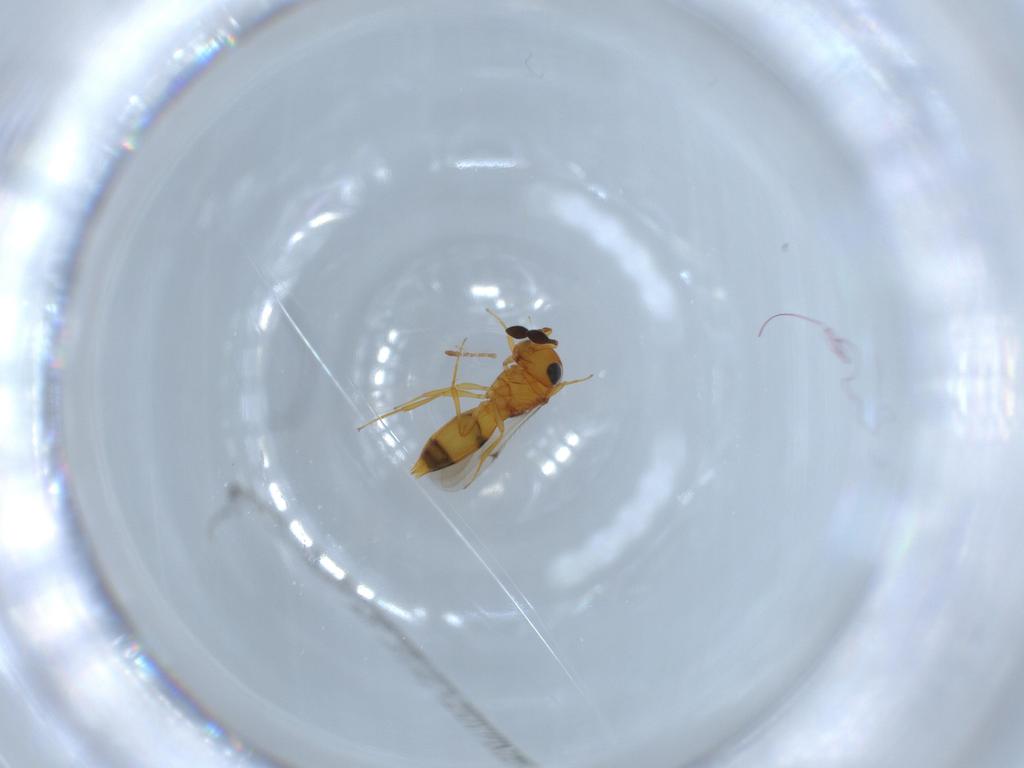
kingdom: Animalia
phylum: Arthropoda
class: Insecta
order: Hymenoptera
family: Scelionidae
